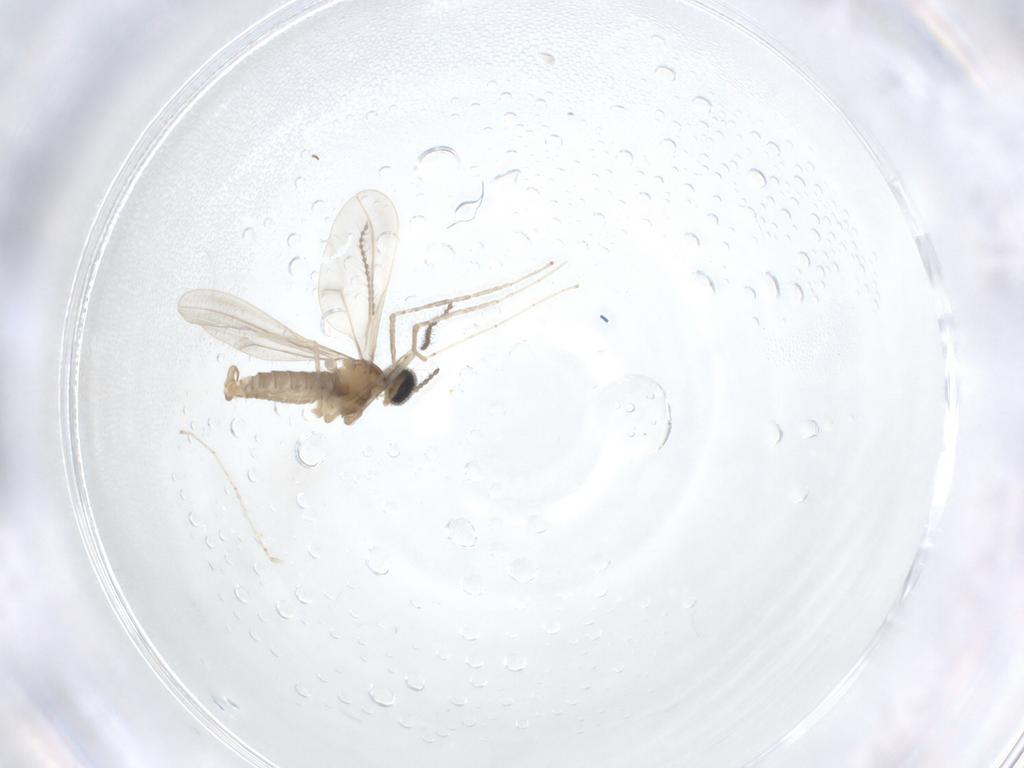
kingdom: Animalia
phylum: Arthropoda
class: Insecta
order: Diptera
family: Cecidomyiidae
